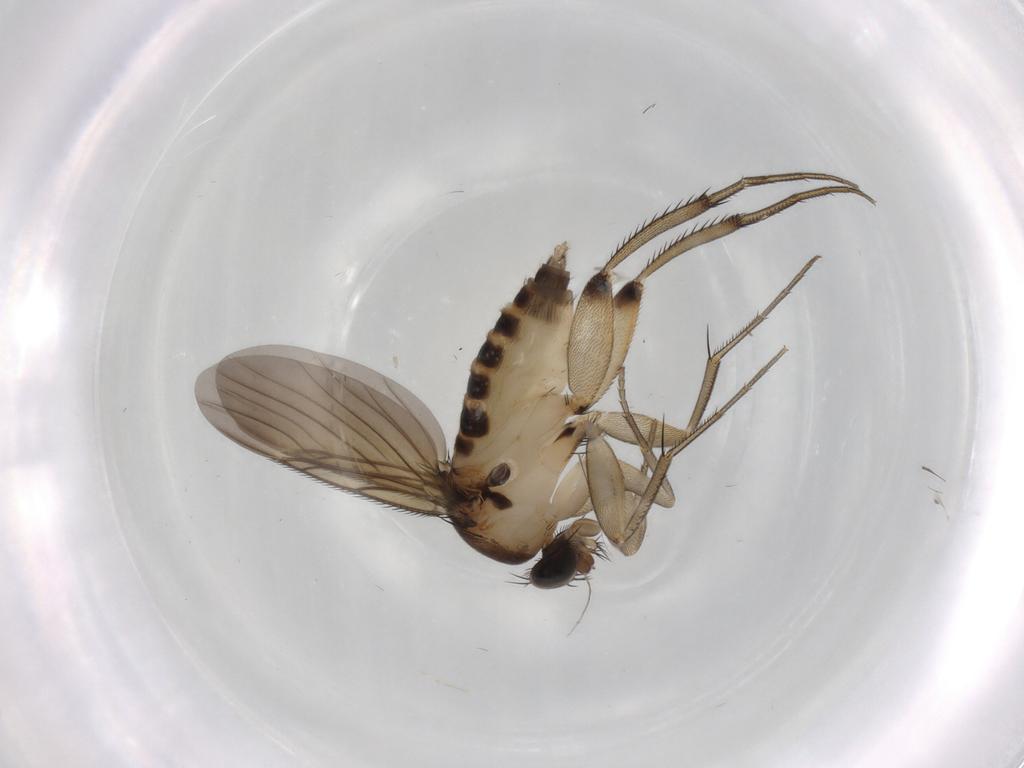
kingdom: Animalia
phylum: Arthropoda
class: Insecta
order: Diptera
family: Phoridae
